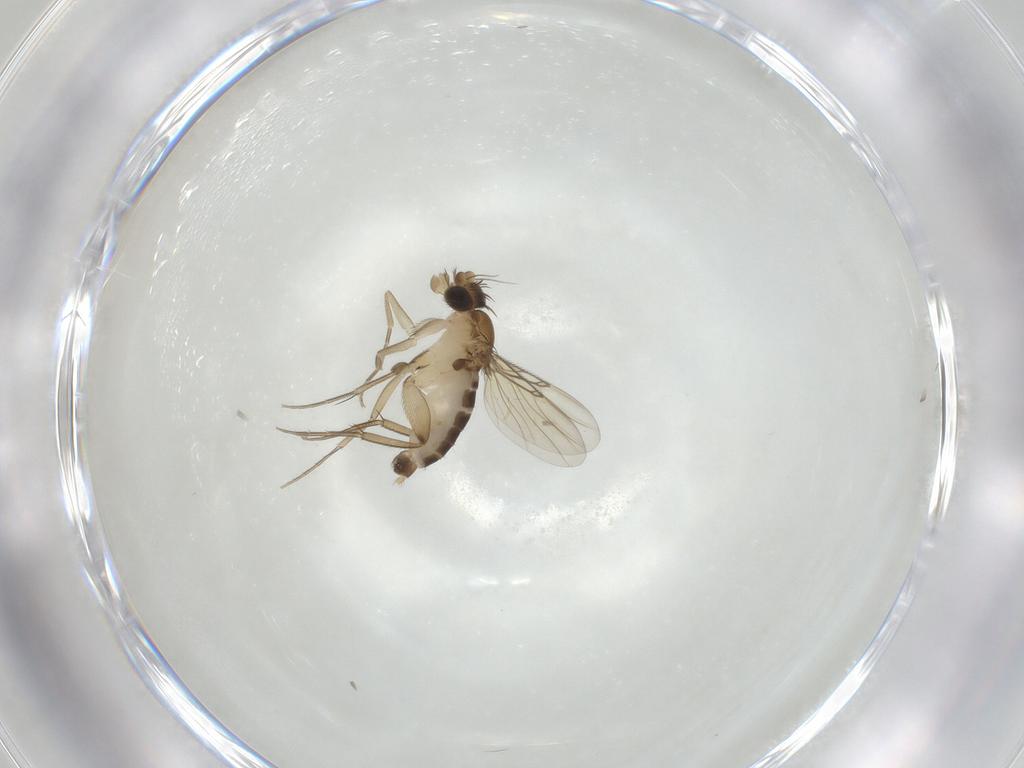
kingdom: Animalia
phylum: Arthropoda
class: Insecta
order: Diptera
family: Phoridae
